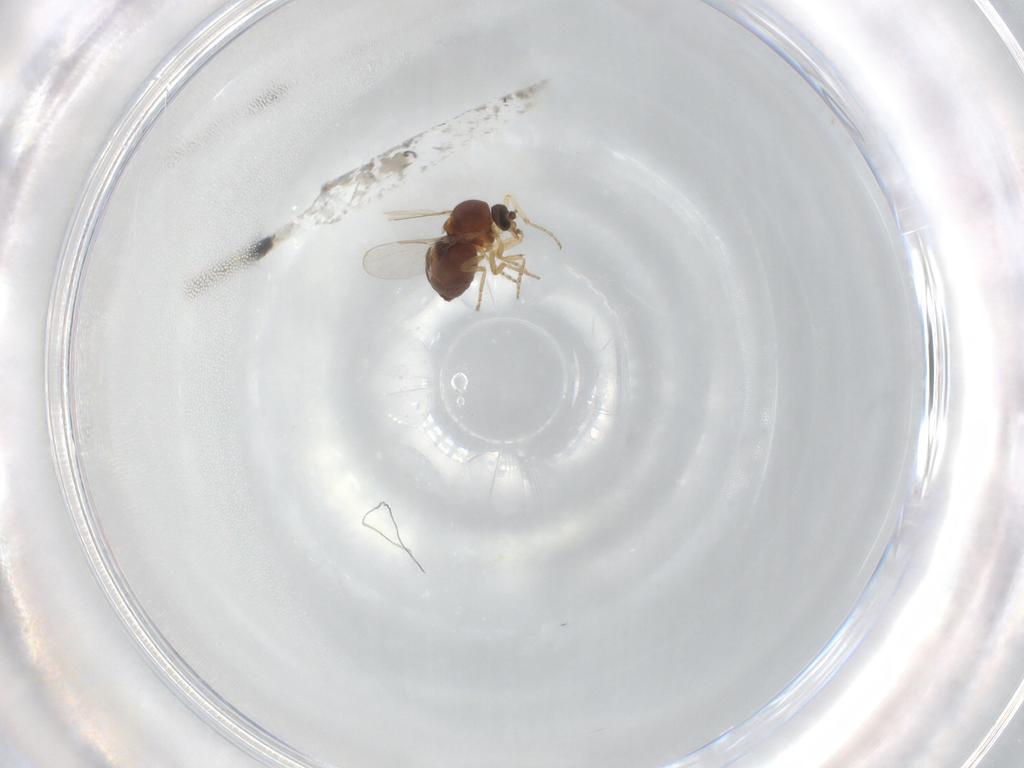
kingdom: Animalia
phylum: Arthropoda
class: Insecta
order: Diptera
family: Ceratopogonidae
